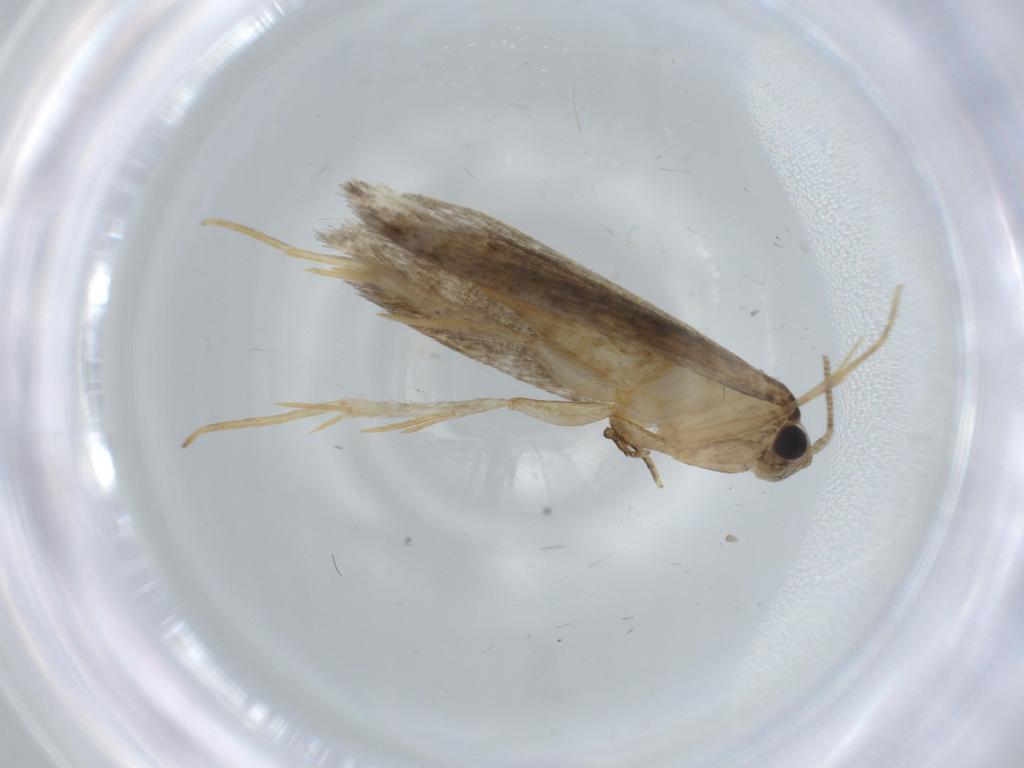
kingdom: Animalia
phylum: Arthropoda
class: Insecta
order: Lepidoptera
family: Tineidae
